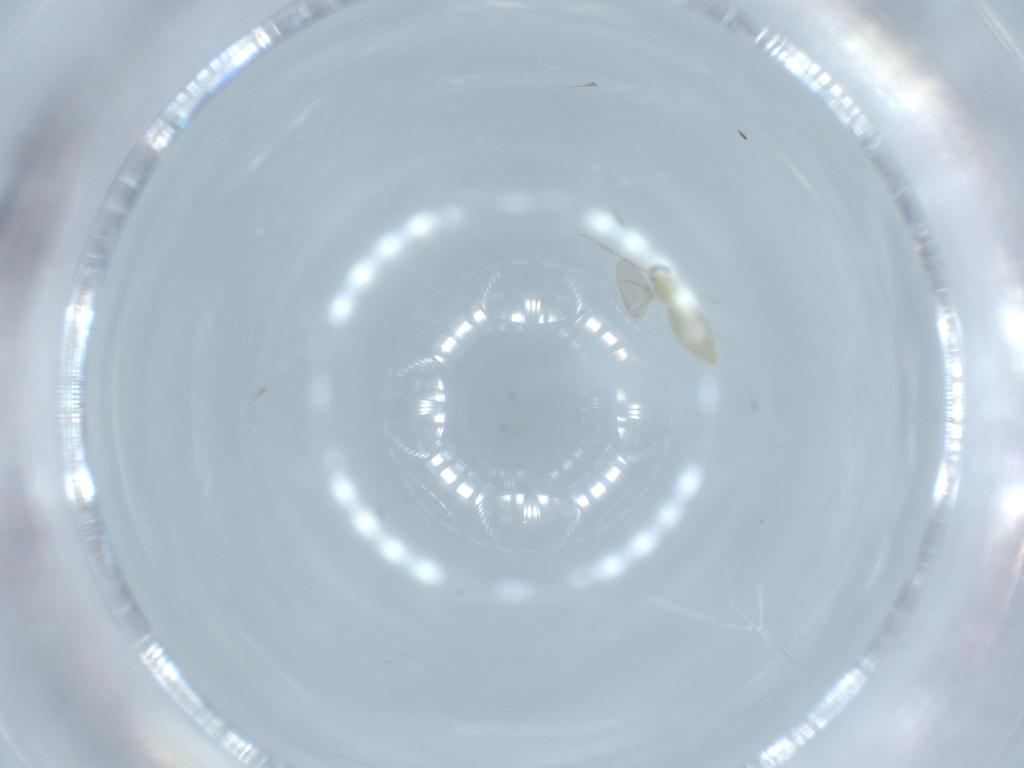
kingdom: Animalia
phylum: Arthropoda
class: Insecta
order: Diptera
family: Cecidomyiidae
